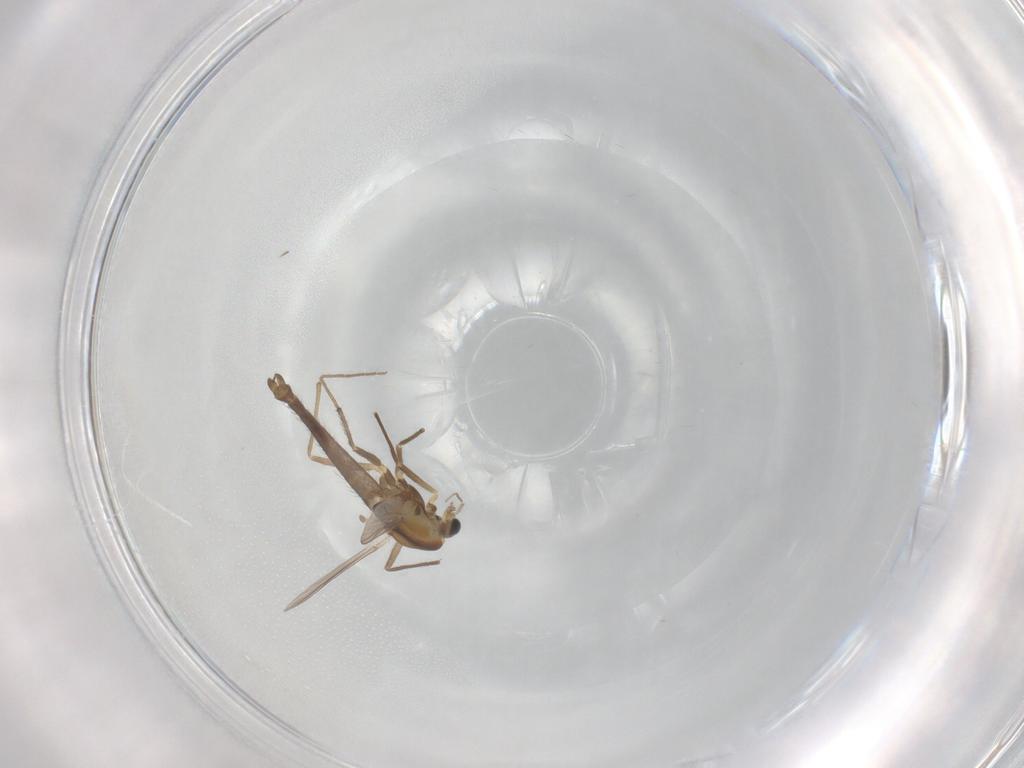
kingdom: Animalia
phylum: Arthropoda
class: Insecta
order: Diptera
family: Chironomidae
